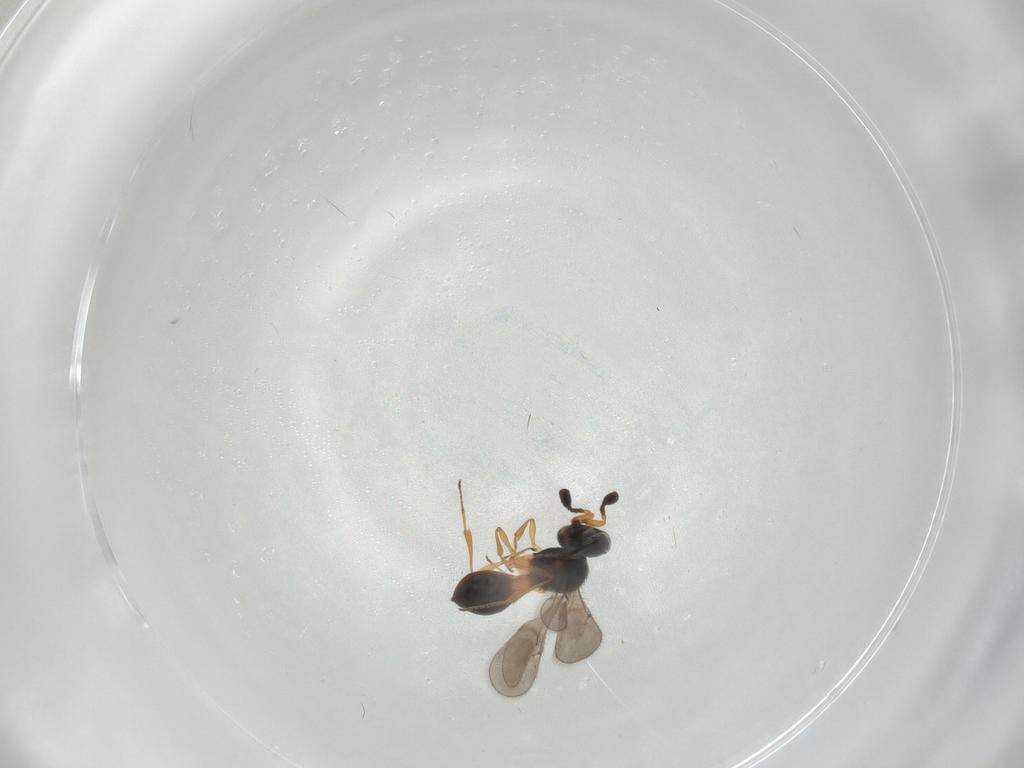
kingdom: Animalia
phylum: Arthropoda
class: Insecta
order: Hymenoptera
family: Scelionidae
